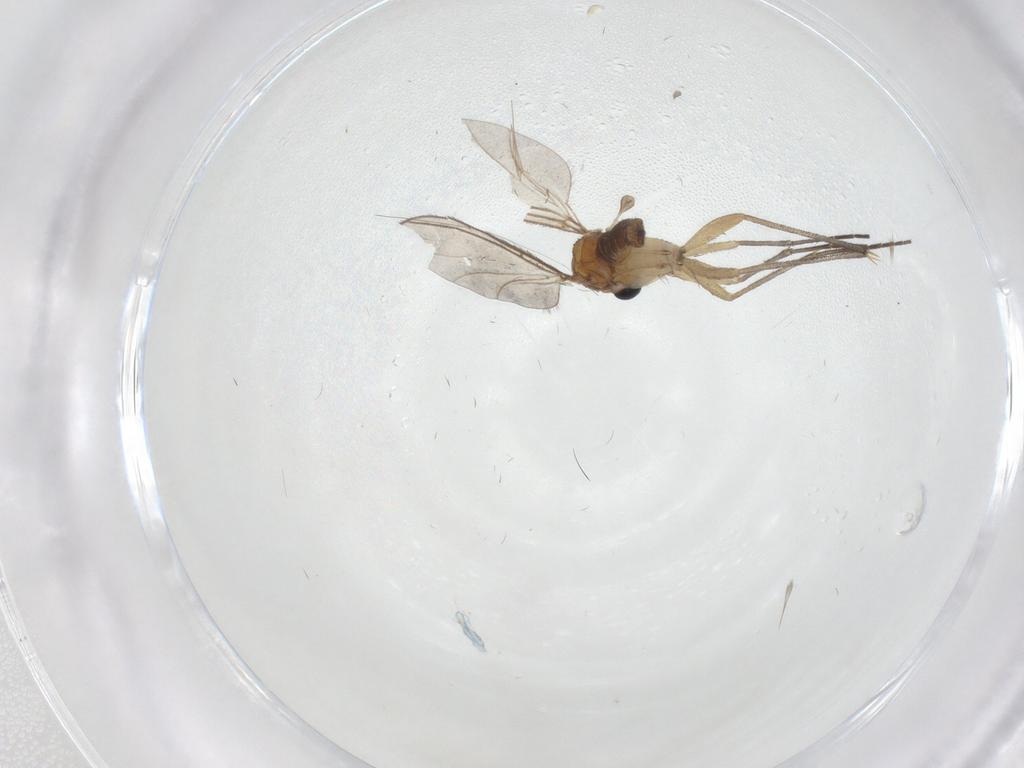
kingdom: Animalia
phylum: Arthropoda
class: Insecta
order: Diptera
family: Sciaridae
